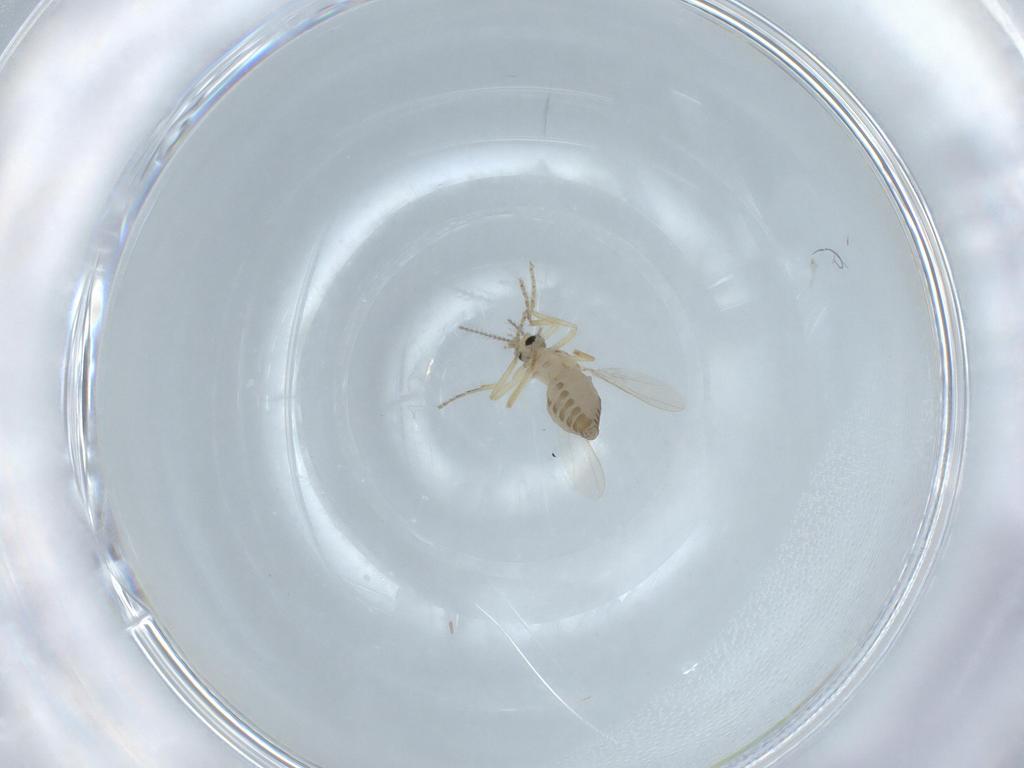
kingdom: Animalia
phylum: Arthropoda
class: Insecta
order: Diptera
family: Ceratopogonidae
